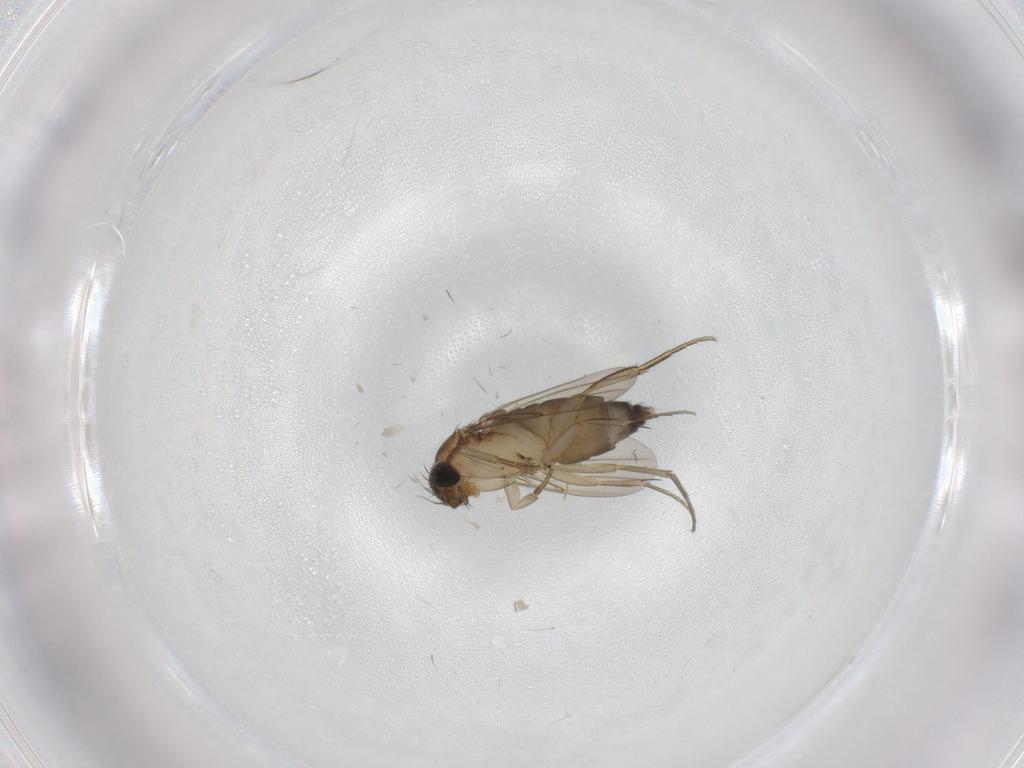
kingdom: Animalia
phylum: Arthropoda
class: Insecta
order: Diptera
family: Phoridae
